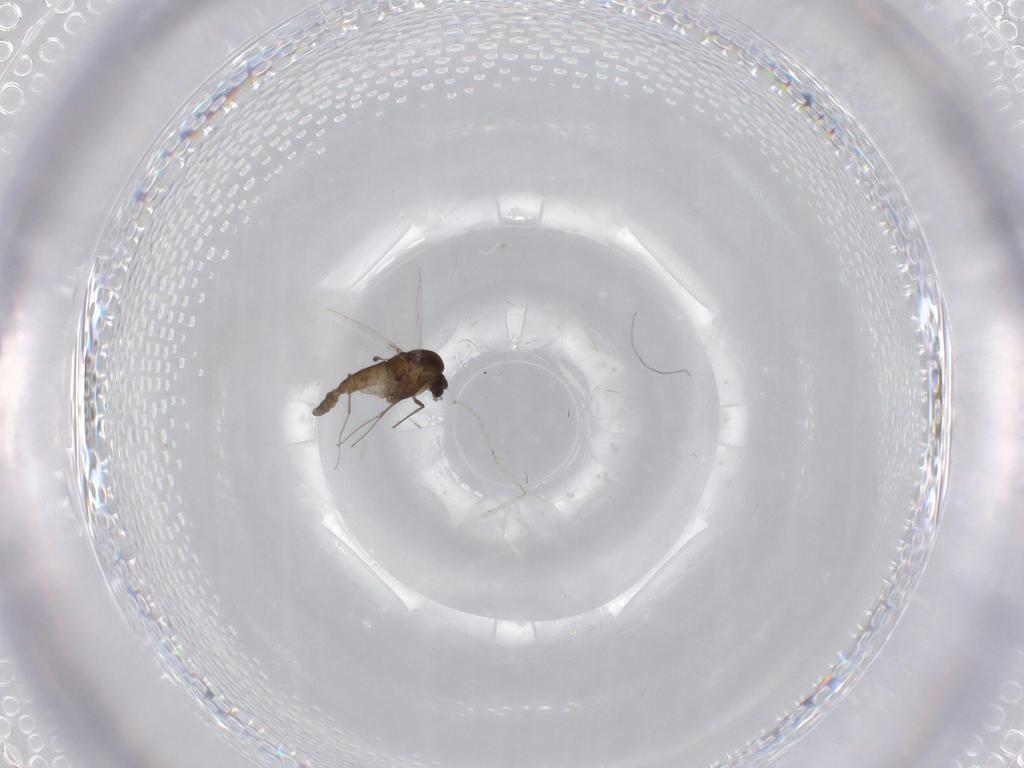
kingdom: Animalia
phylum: Arthropoda
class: Insecta
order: Diptera
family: Chironomidae
